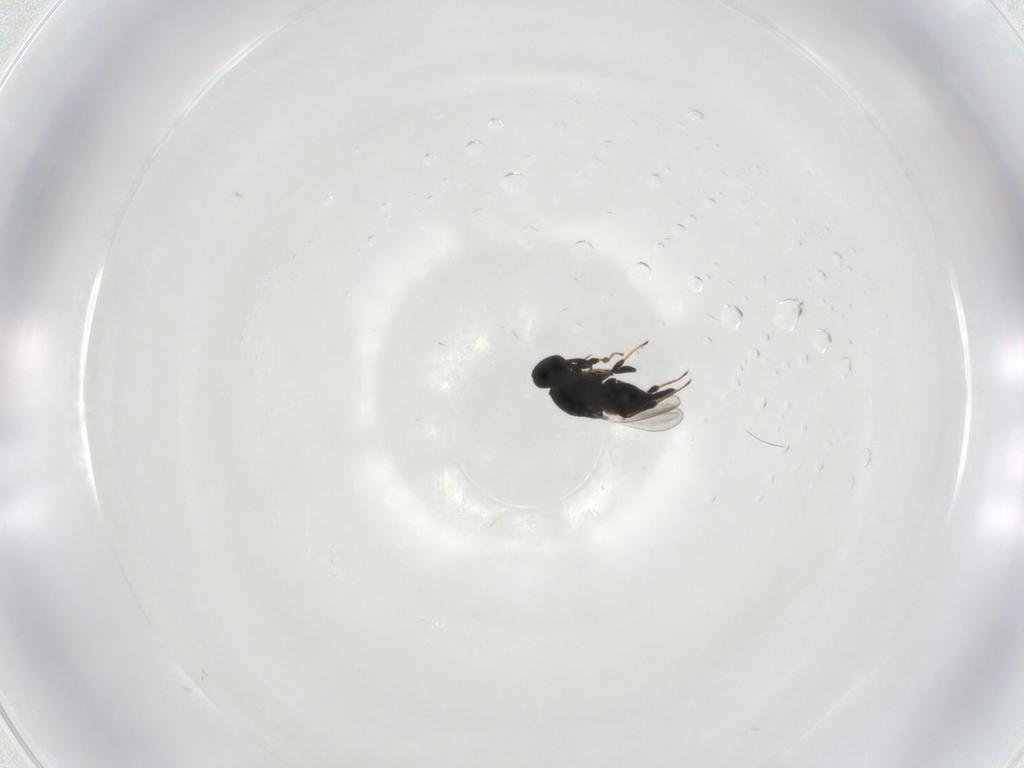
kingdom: Animalia
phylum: Arthropoda
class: Insecta
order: Hymenoptera
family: Platygastridae
